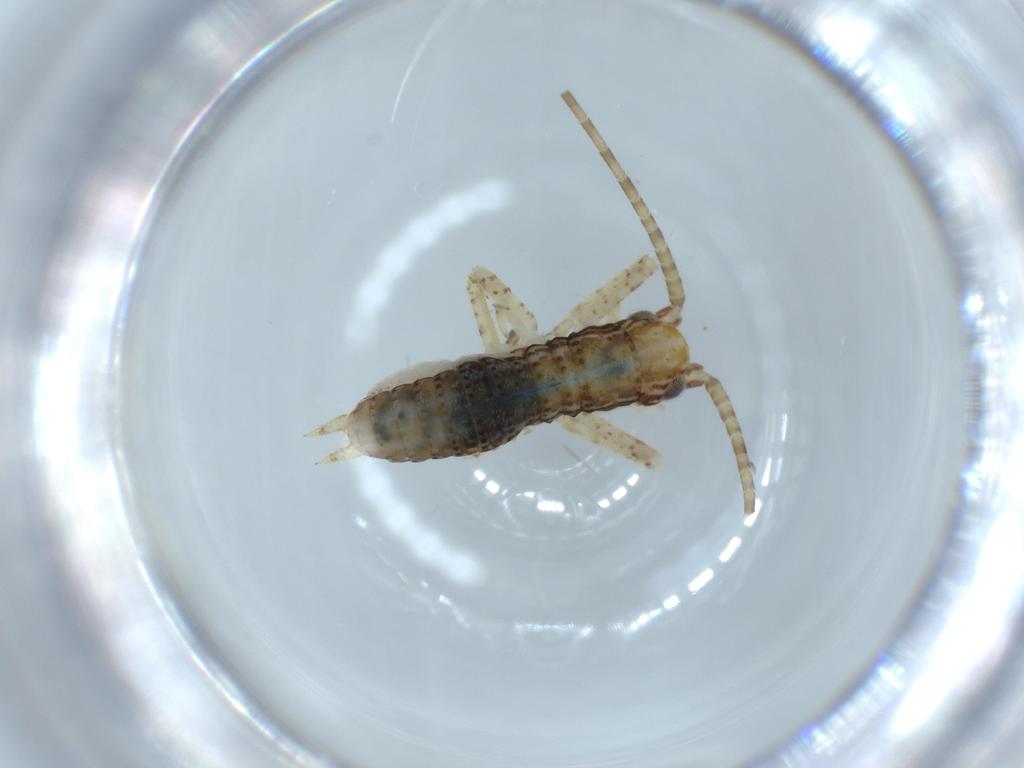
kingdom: Animalia
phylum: Arthropoda
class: Insecta
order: Orthoptera
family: Gryllidae
